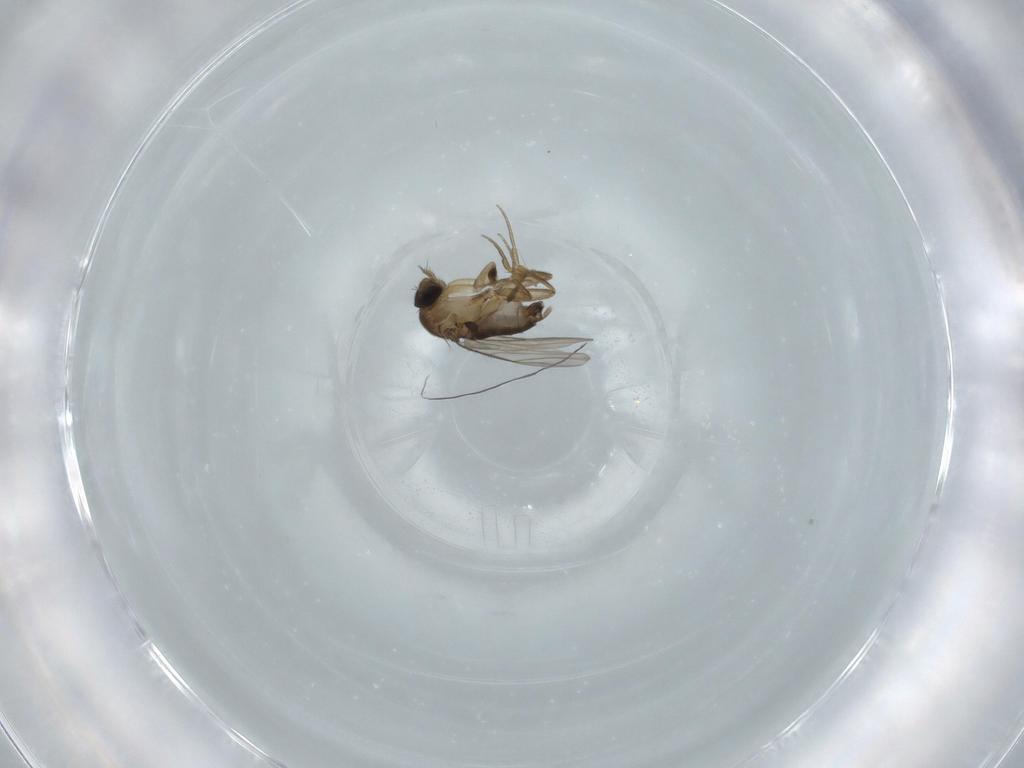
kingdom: Animalia
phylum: Arthropoda
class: Insecta
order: Diptera
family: Phoridae
